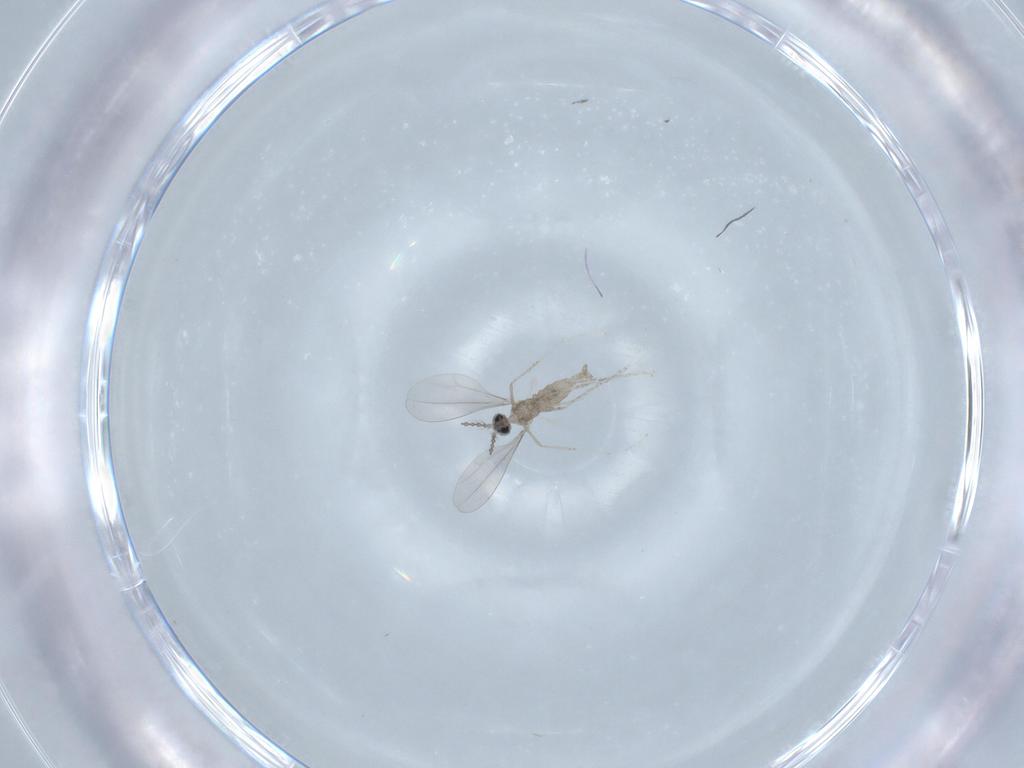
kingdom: Animalia
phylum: Arthropoda
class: Insecta
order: Diptera
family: Cecidomyiidae
